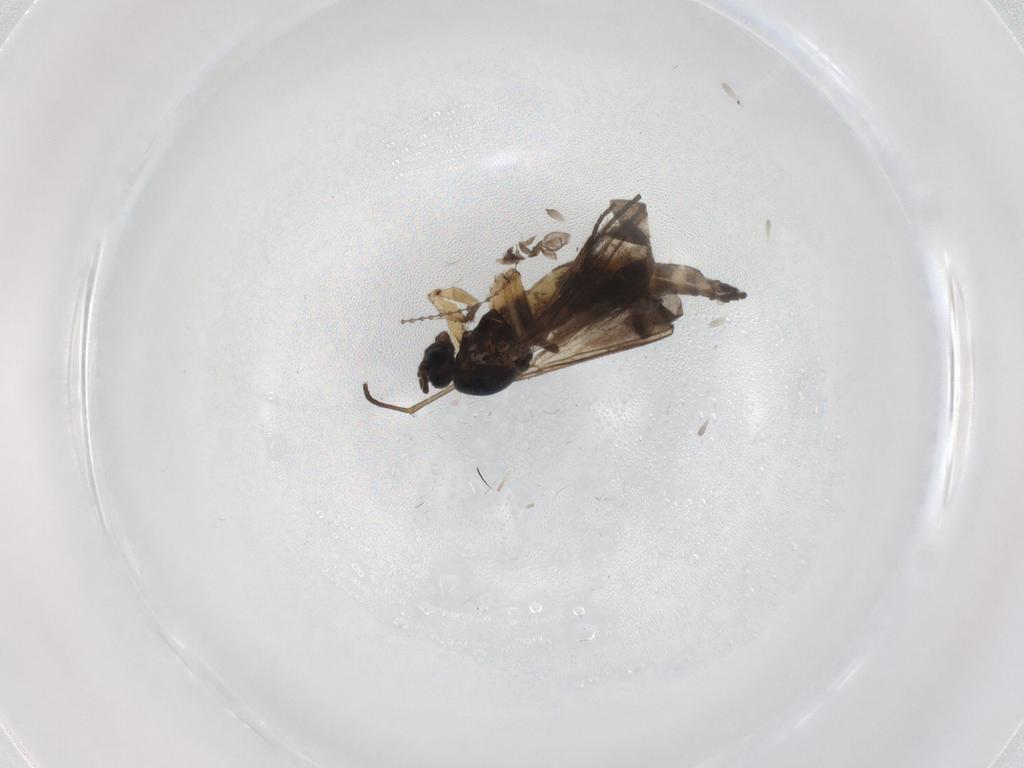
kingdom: Animalia
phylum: Arthropoda
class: Insecta
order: Diptera
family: Sciaridae
